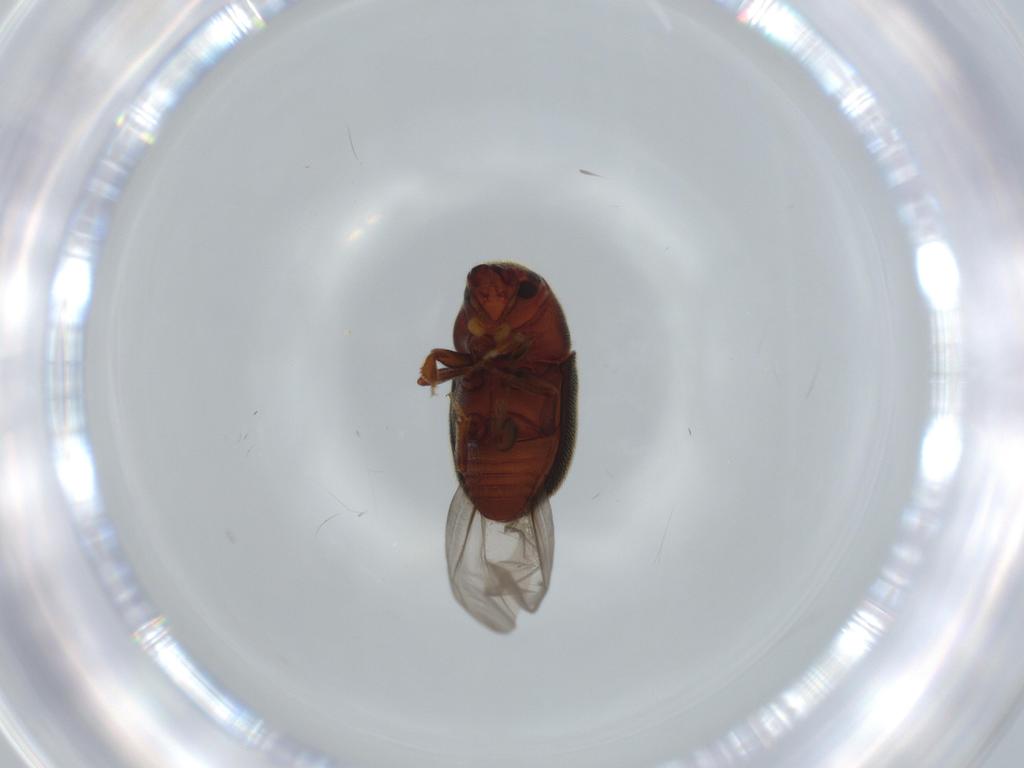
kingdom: Animalia
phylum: Arthropoda
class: Insecta
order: Coleoptera
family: Curculionidae
